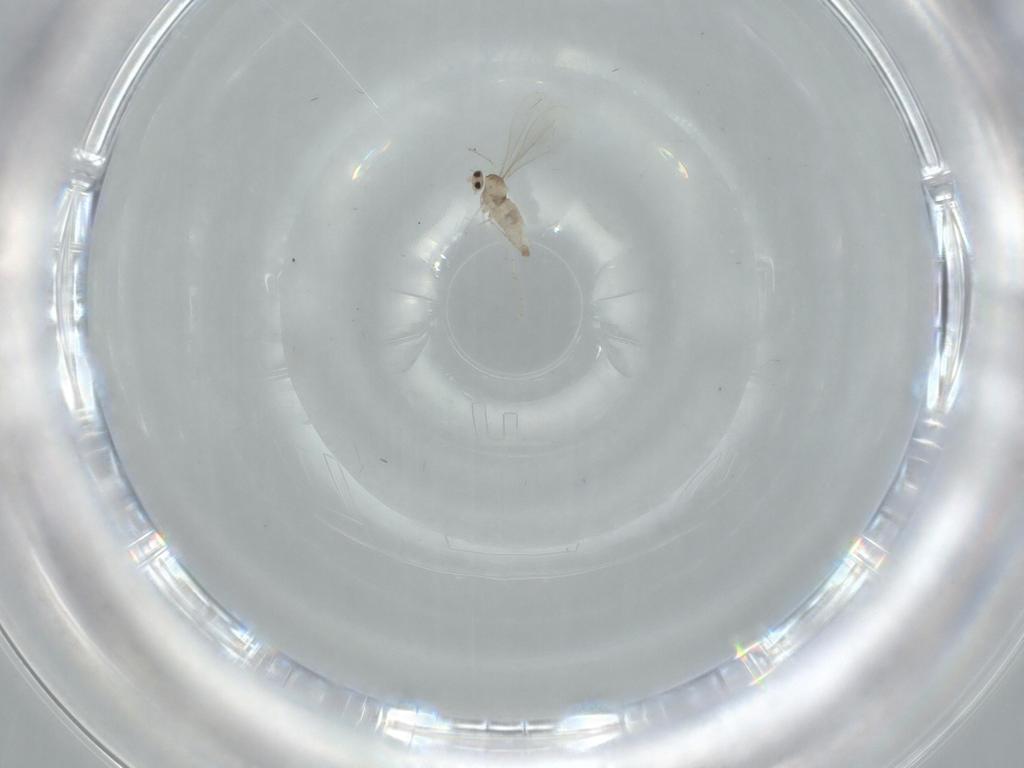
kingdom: Animalia
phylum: Arthropoda
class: Insecta
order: Diptera
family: Cecidomyiidae
